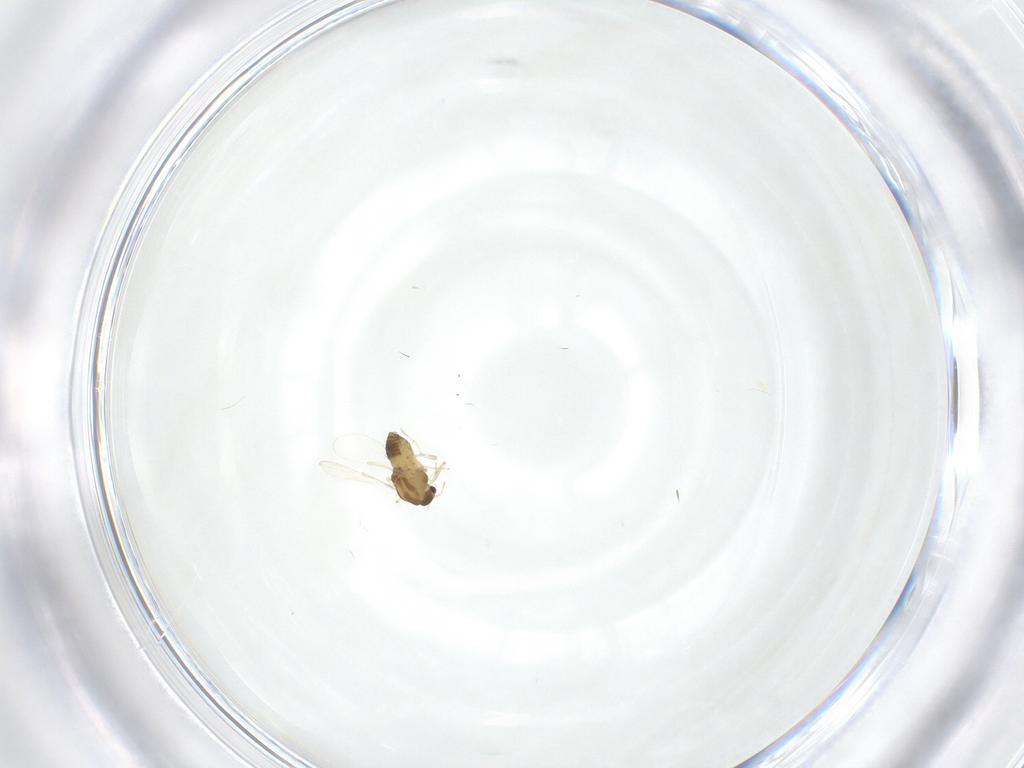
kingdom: Animalia
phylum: Arthropoda
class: Insecta
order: Diptera
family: Chironomidae
